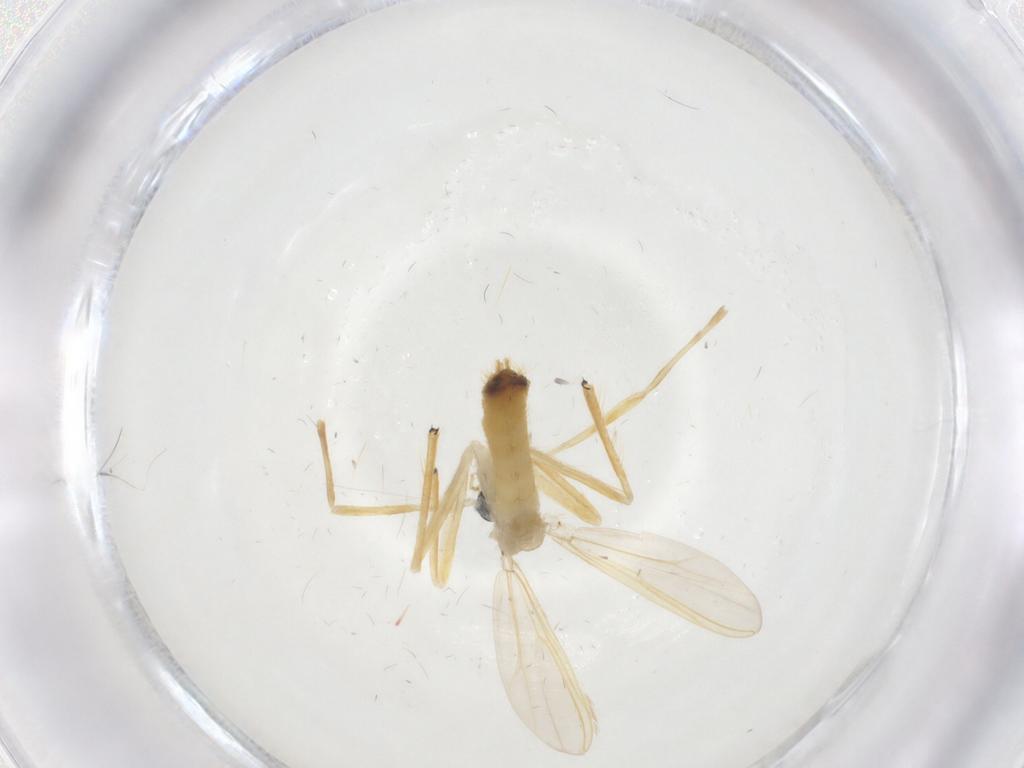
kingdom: Animalia
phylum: Arthropoda
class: Insecta
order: Diptera
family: Chironomidae
